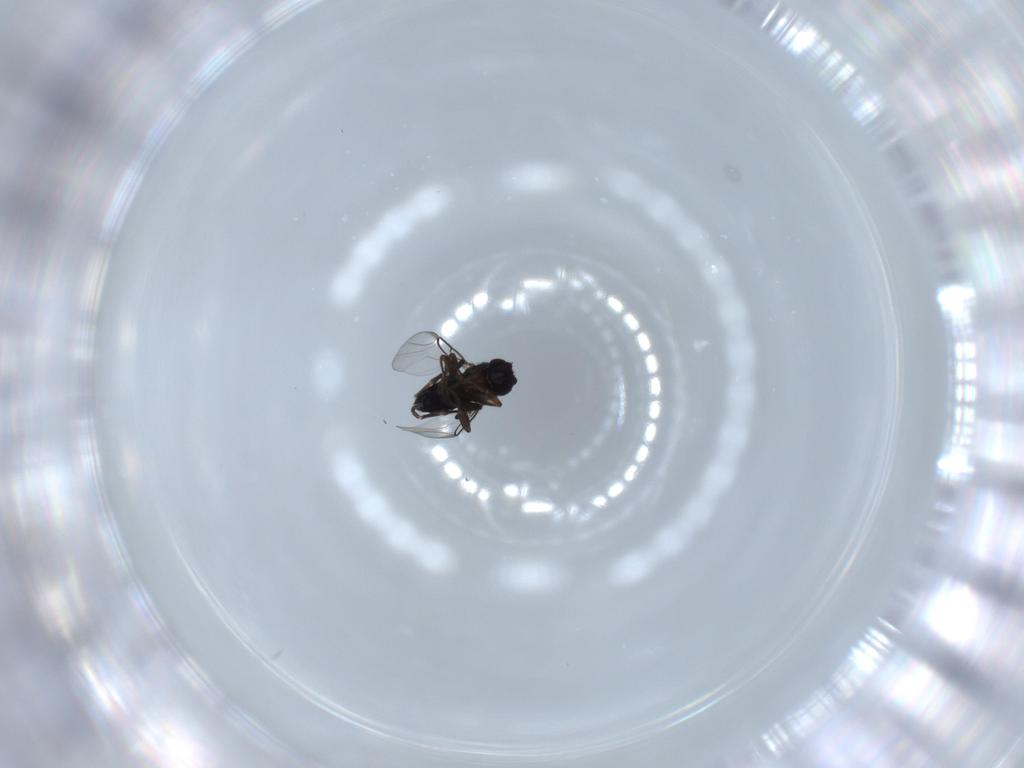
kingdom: Animalia
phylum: Arthropoda
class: Insecta
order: Diptera
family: Phoridae
